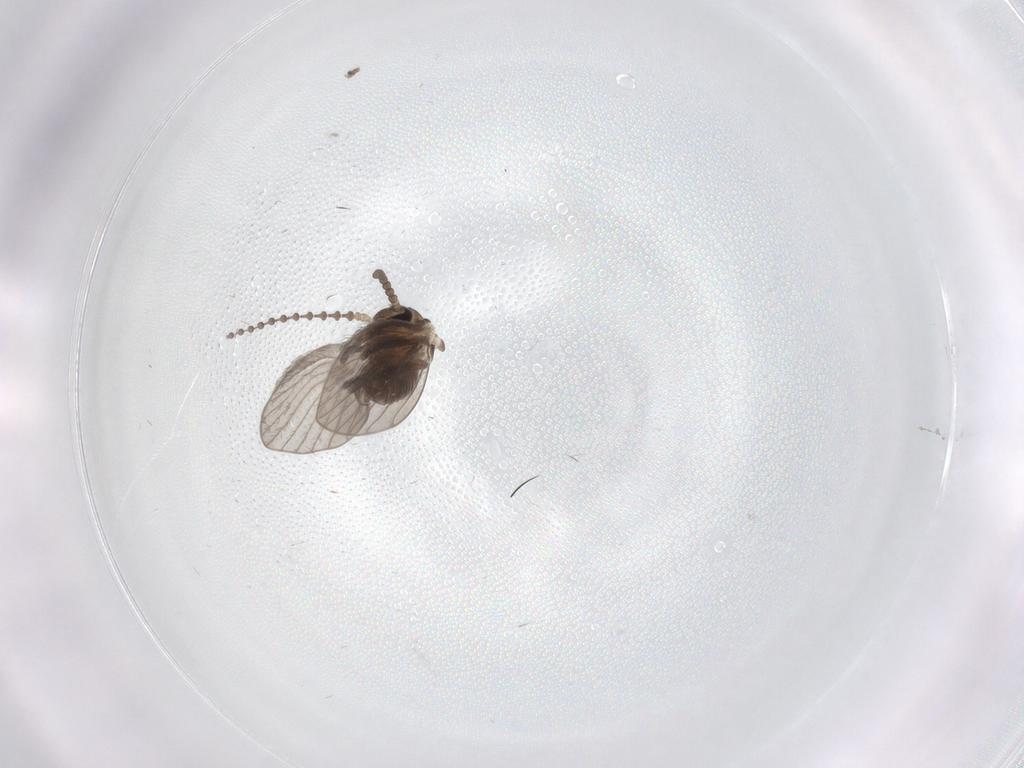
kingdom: Animalia
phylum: Arthropoda
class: Insecta
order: Diptera
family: Psychodidae
